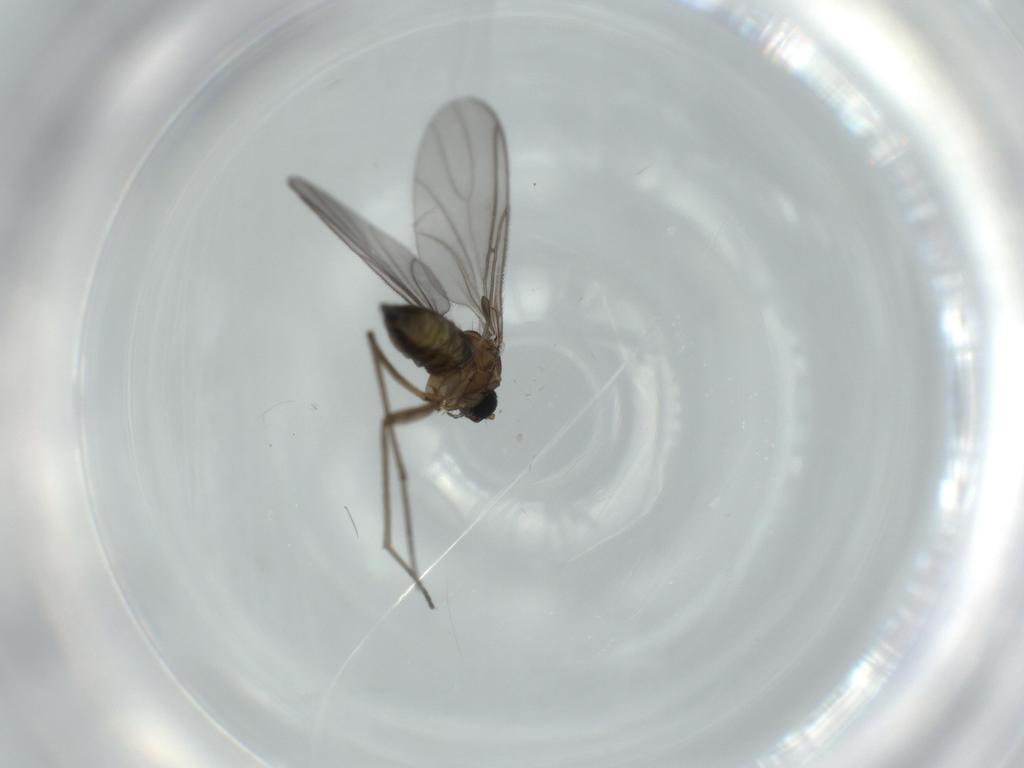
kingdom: Animalia
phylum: Arthropoda
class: Insecta
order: Diptera
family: Sciaridae
